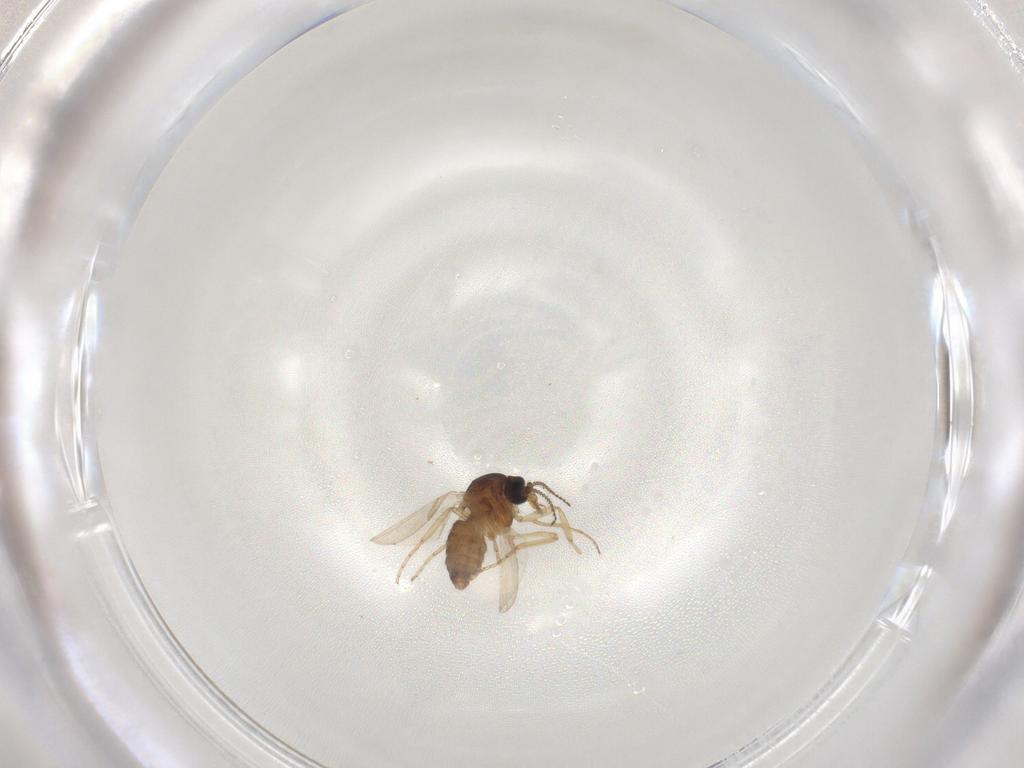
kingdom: Animalia
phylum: Arthropoda
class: Insecta
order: Diptera
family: Ceratopogonidae
